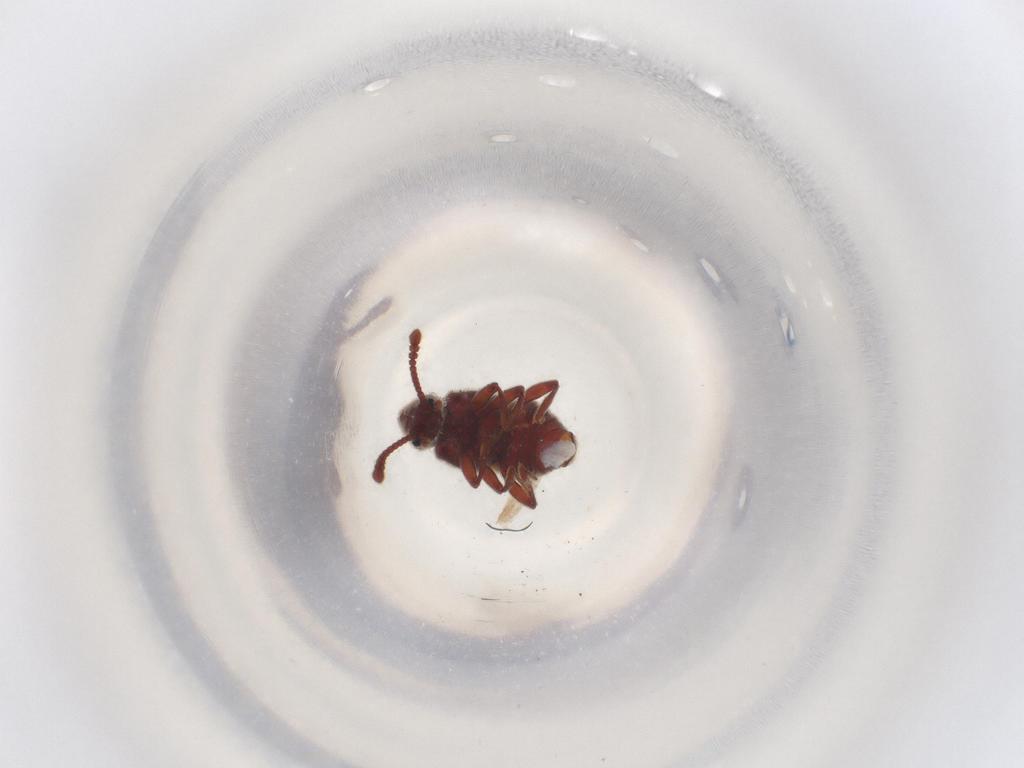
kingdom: Animalia
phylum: Arthropoda
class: Insecta
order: Coleoptera
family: Staphylinidae
